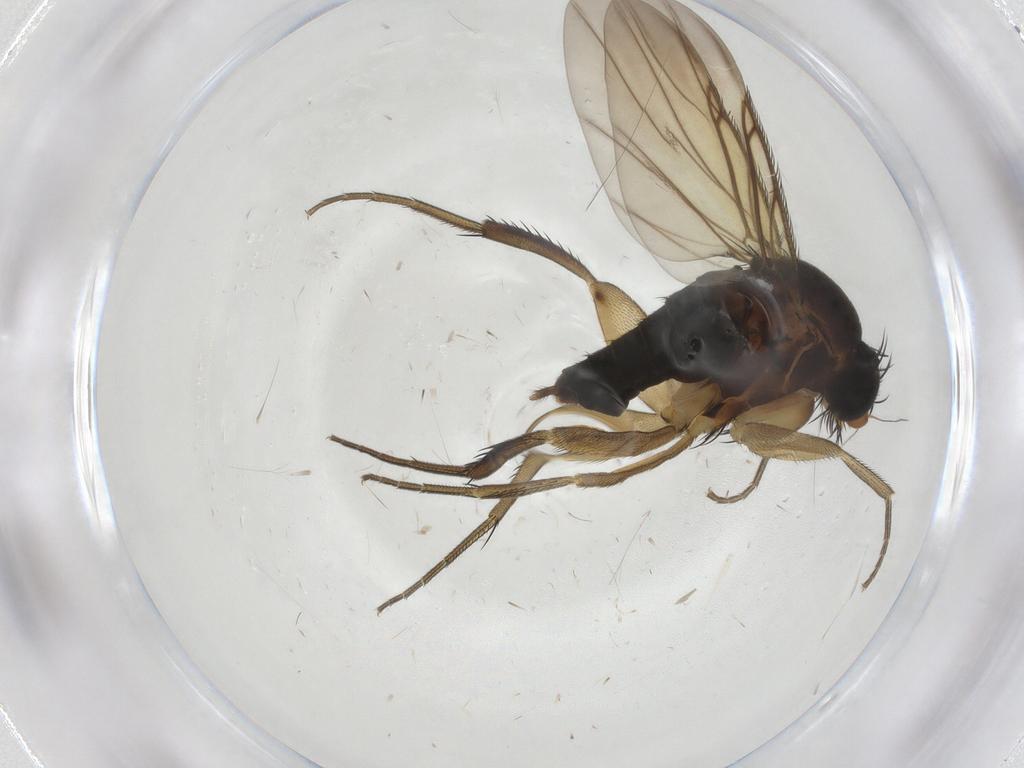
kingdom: Animalia
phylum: Arthropoda
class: Insecta
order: Diptera
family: Phoridae
